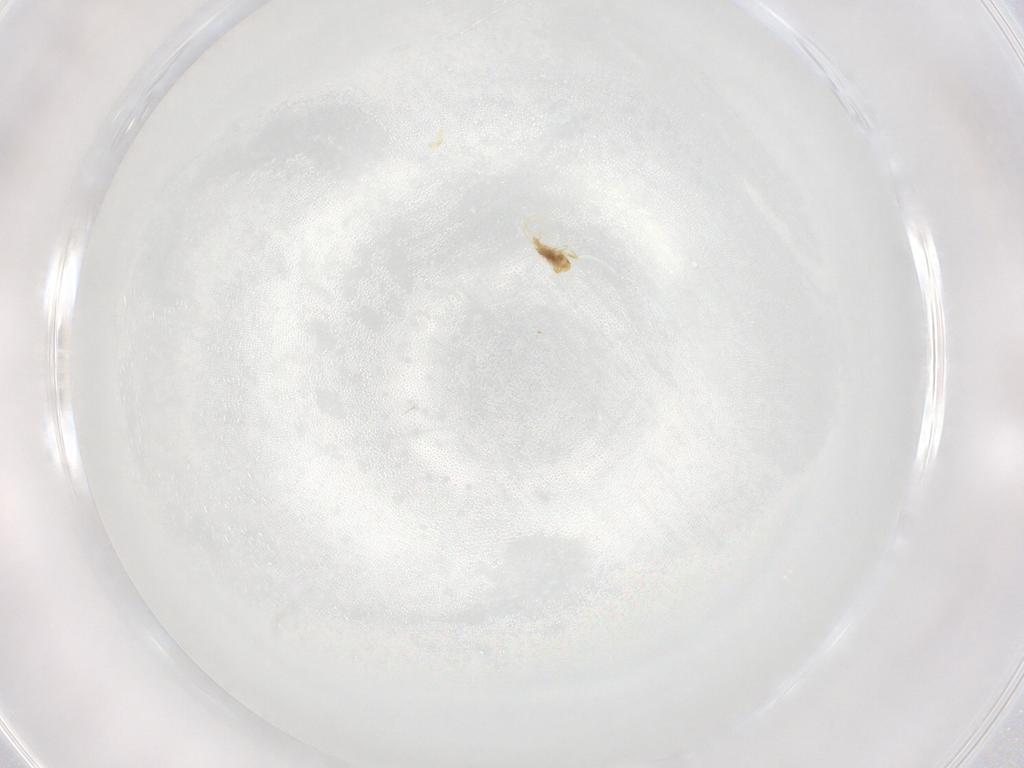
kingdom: Animalia
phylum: Arthropoda
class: Arachnida
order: Trombidiformes
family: Eupodidae
